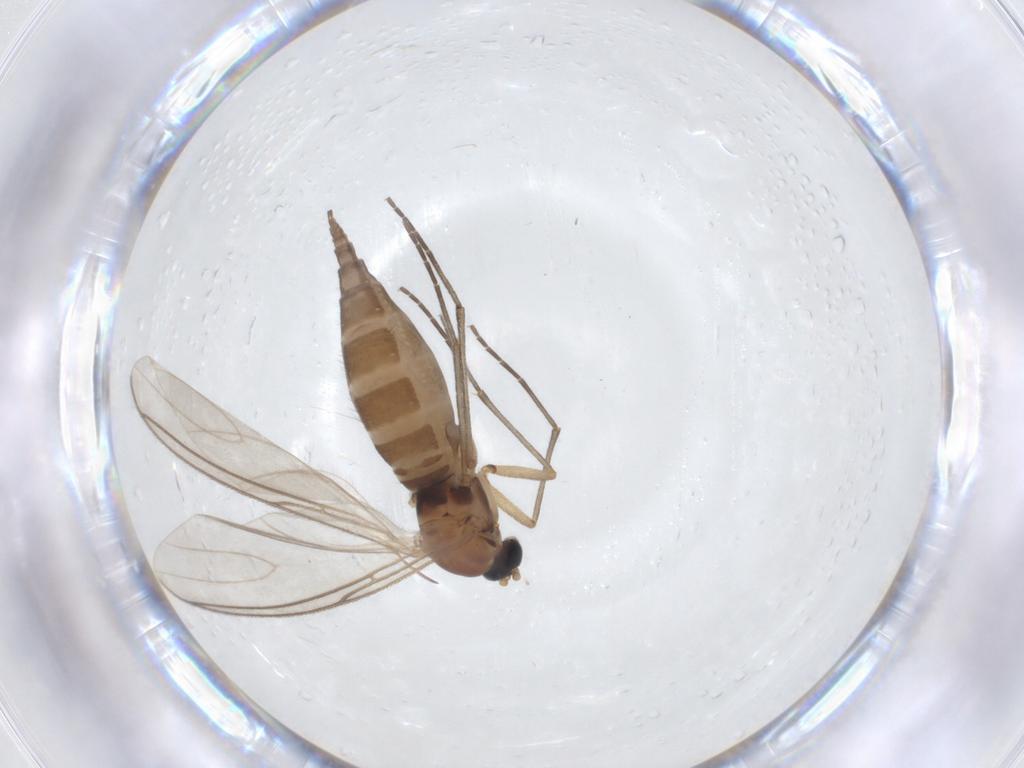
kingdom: Animalia
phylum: Arthropoda
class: Insecta
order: Diptera
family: Sciaridae
